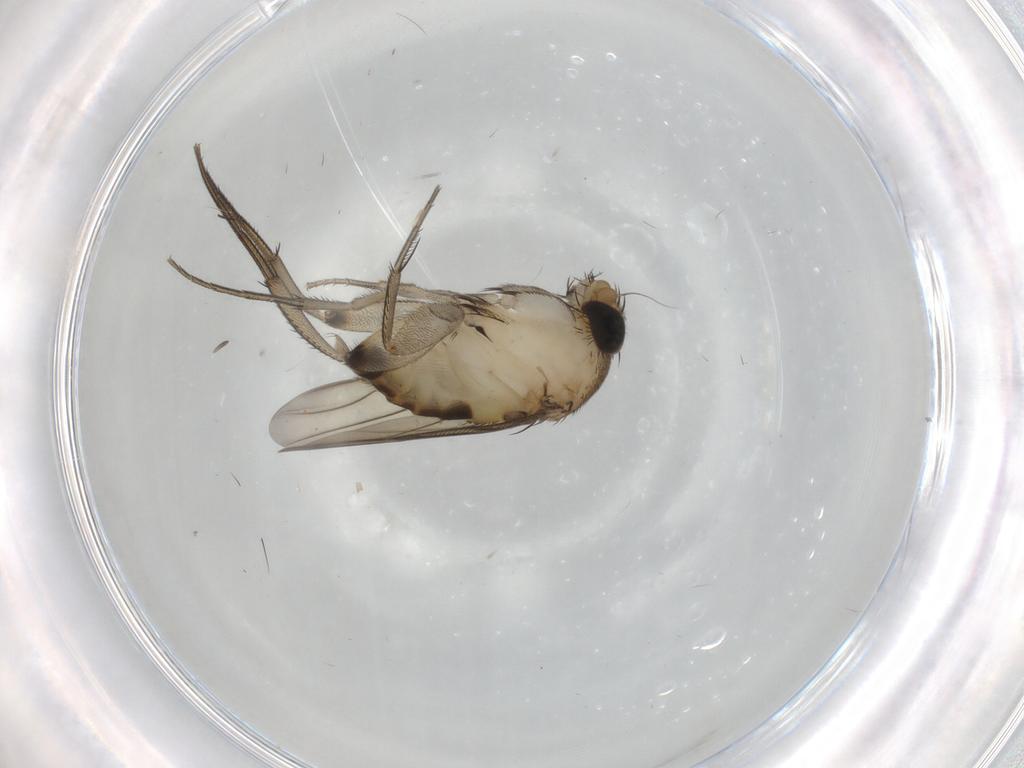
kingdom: Animalia
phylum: Arthropoda
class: Insecta
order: Diptera
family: Phoridae
